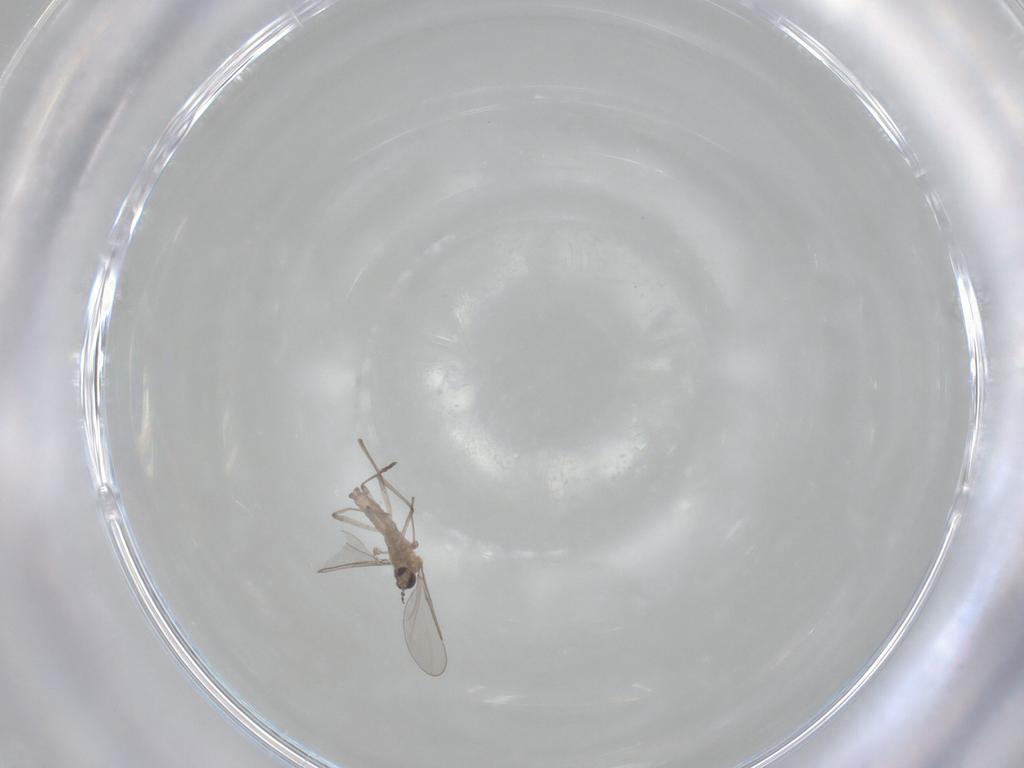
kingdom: Animalia
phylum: Arthropoda
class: Insecta
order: Diptera
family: Cecidomyiidae
